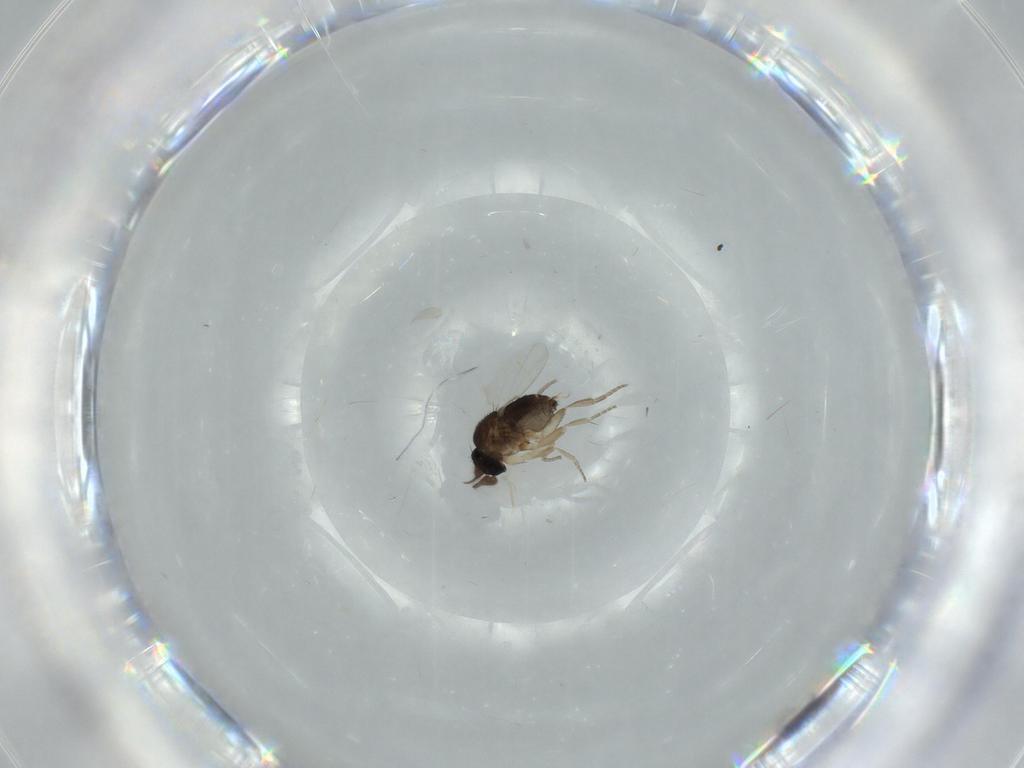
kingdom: Animalia
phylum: Arthropoda
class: Insecta
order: Diptera
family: Phoridae
